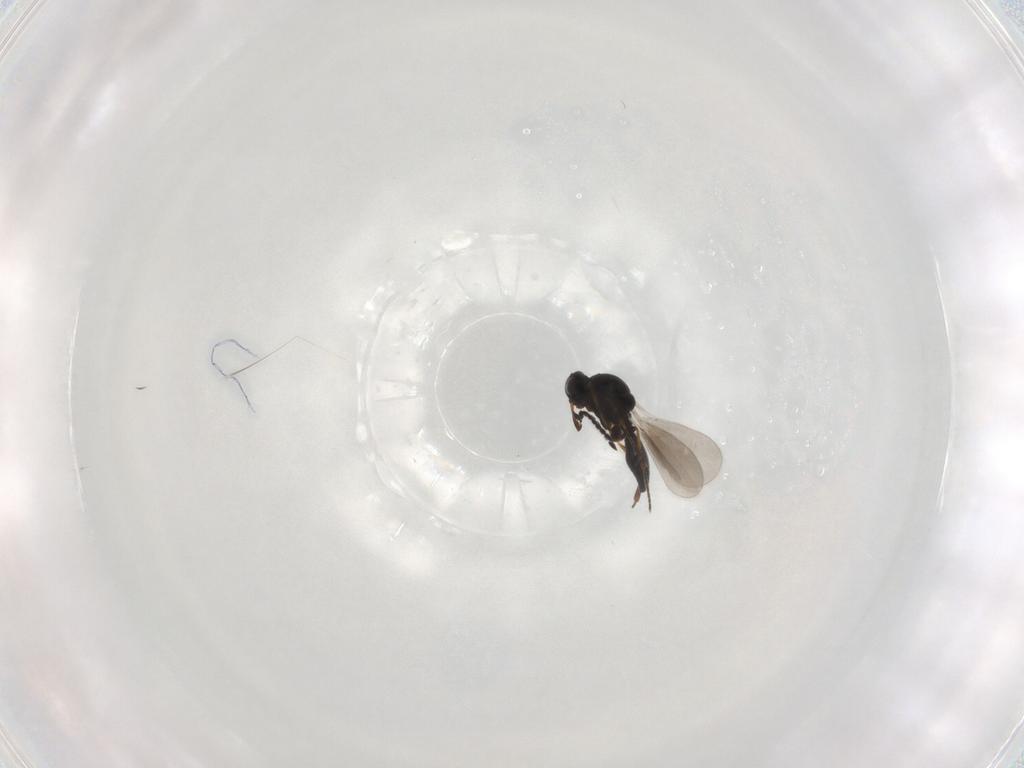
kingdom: Animalia
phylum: Arthropoda
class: Insecta
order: Hymenoptera
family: Platygastridae
